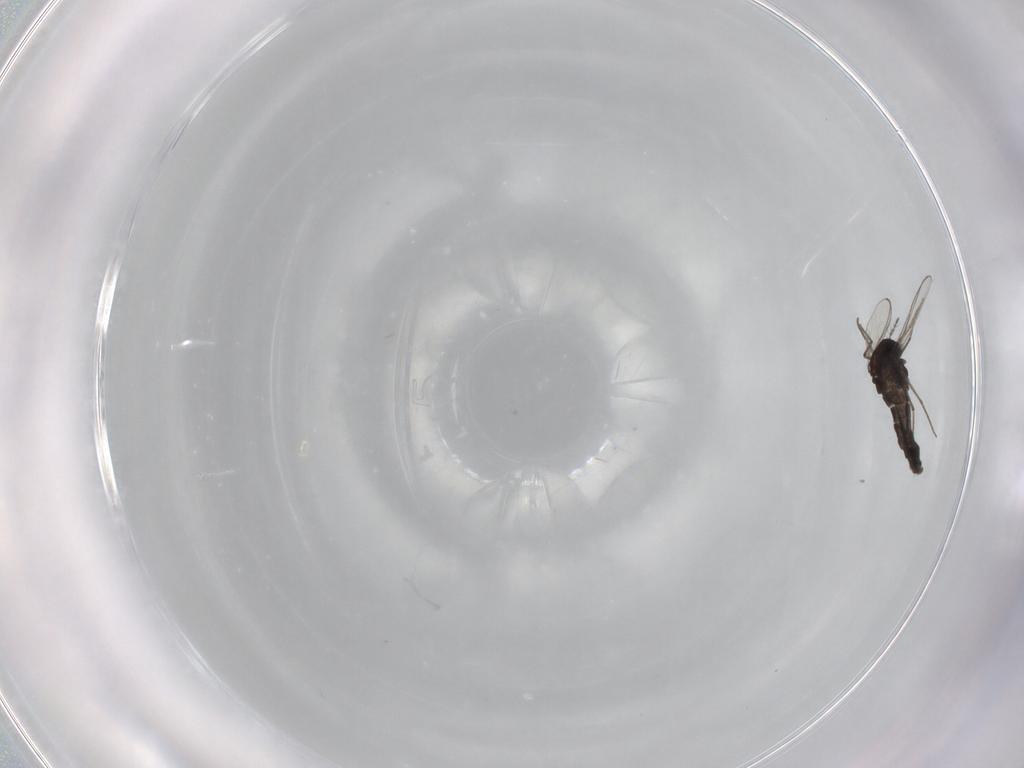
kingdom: Animalia
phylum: Arthropoda
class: Insecta
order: Diptera
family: Chironomidae
